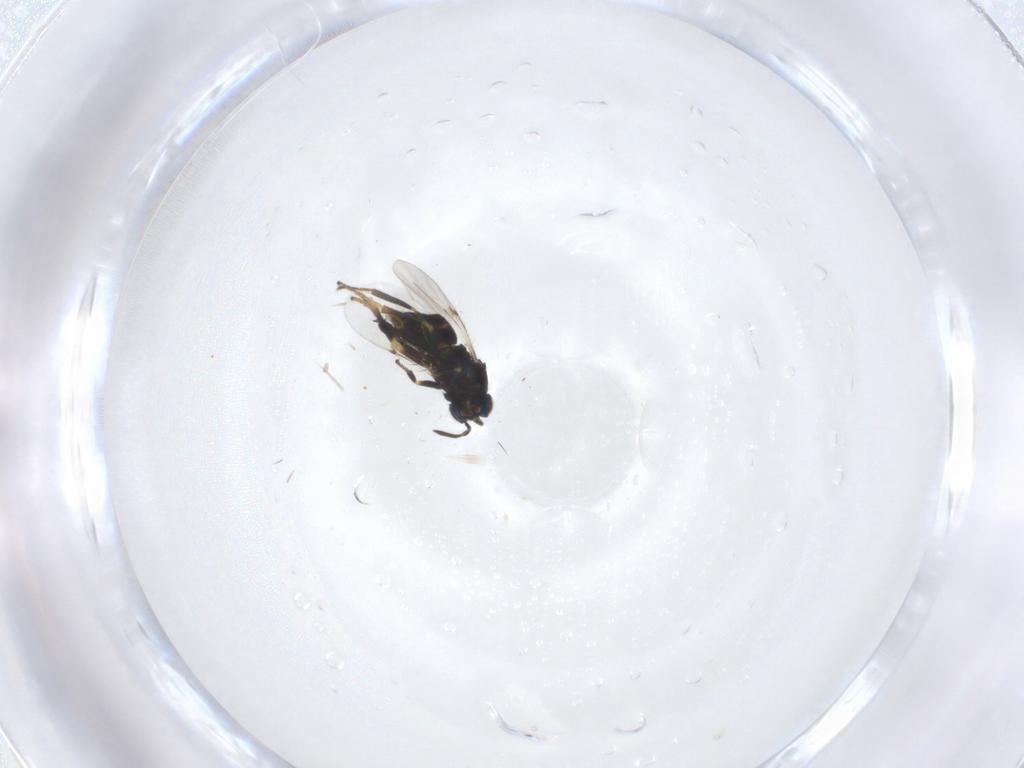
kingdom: Animalia
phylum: Arthropoda
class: Insecta
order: Hymenoptera
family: Encyrtidae
